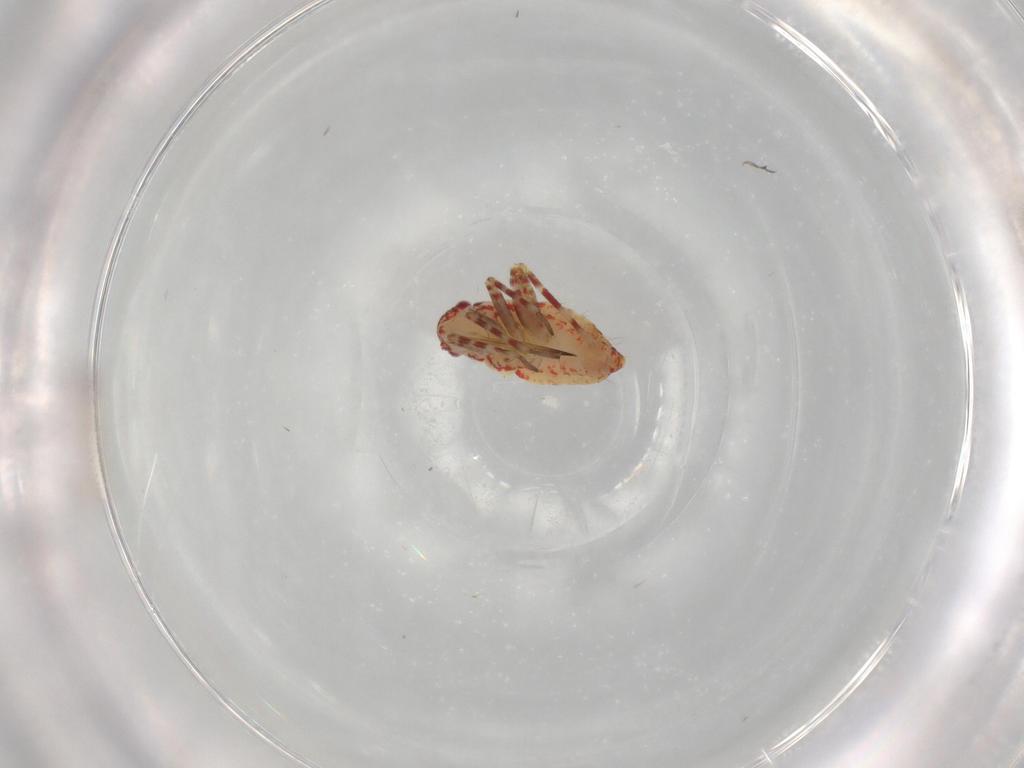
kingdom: Animalia
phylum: Arthropoda
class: Insecta
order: Hemiptera
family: Miridae
